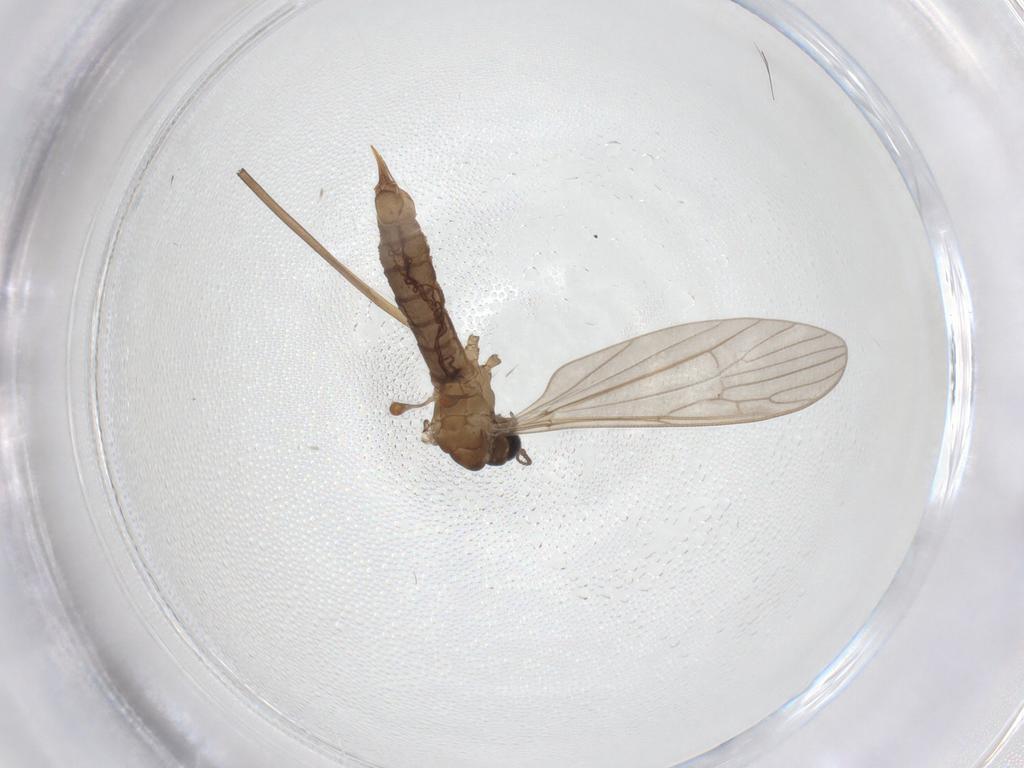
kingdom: Animalia
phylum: Arthropoda
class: Insecta
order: Diptera
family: Limoniidae
